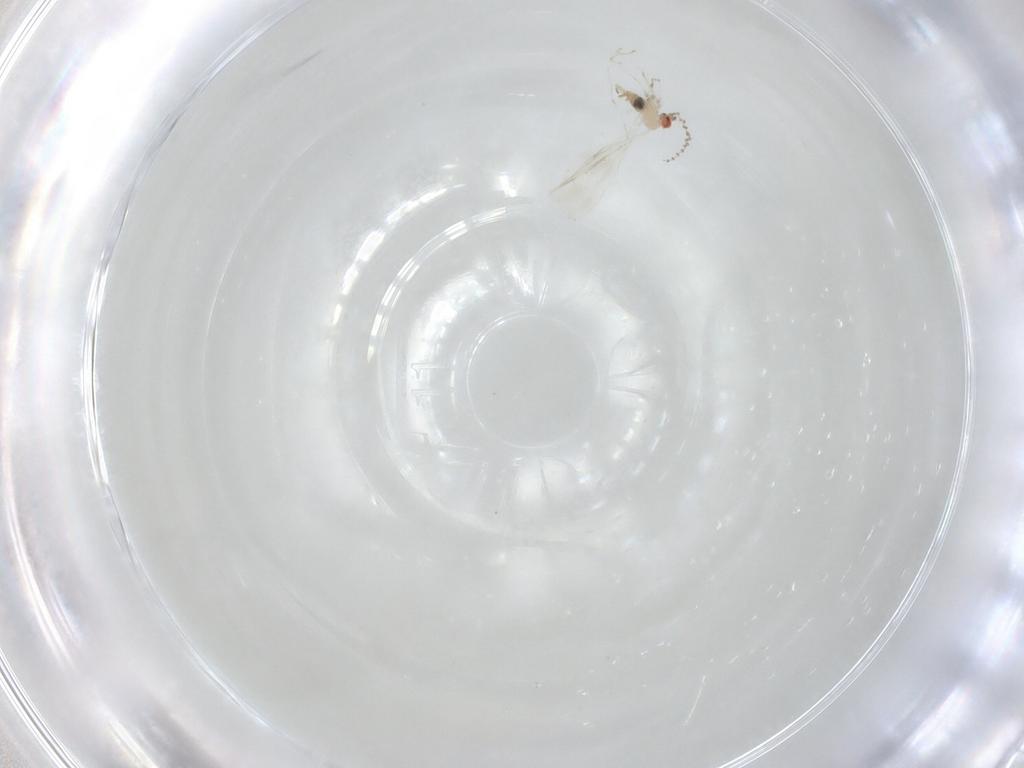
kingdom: Animalia
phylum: Arthropoda
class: Insecta
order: Diptera
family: Cecidomyiidae
